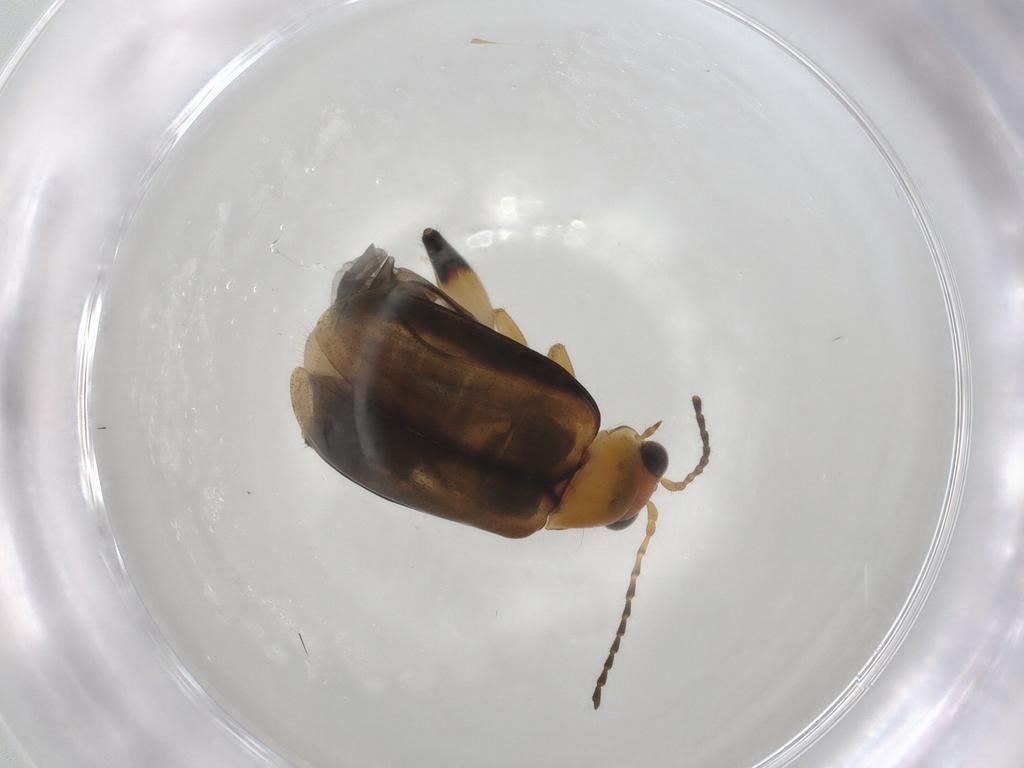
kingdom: Animalia
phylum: Arthropoda
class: Insecta
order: Coleoptera
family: Chrysomelidae
